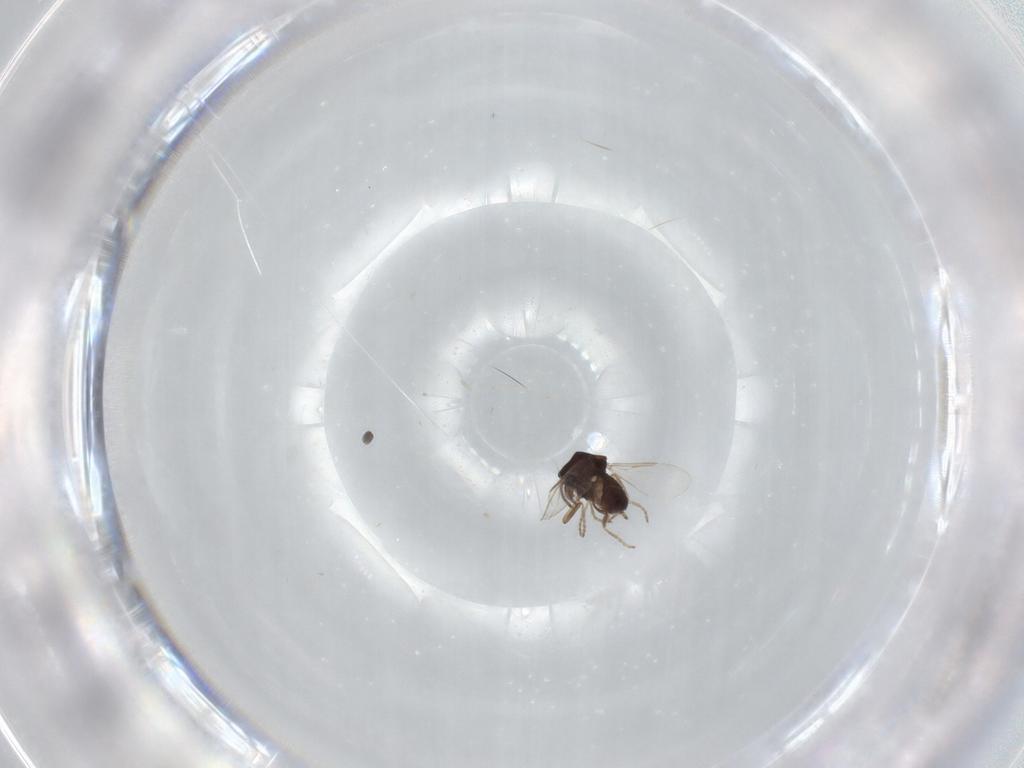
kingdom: Animalia
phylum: Arthropoda
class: Insecta
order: Diptera
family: Ceratopogonidae
